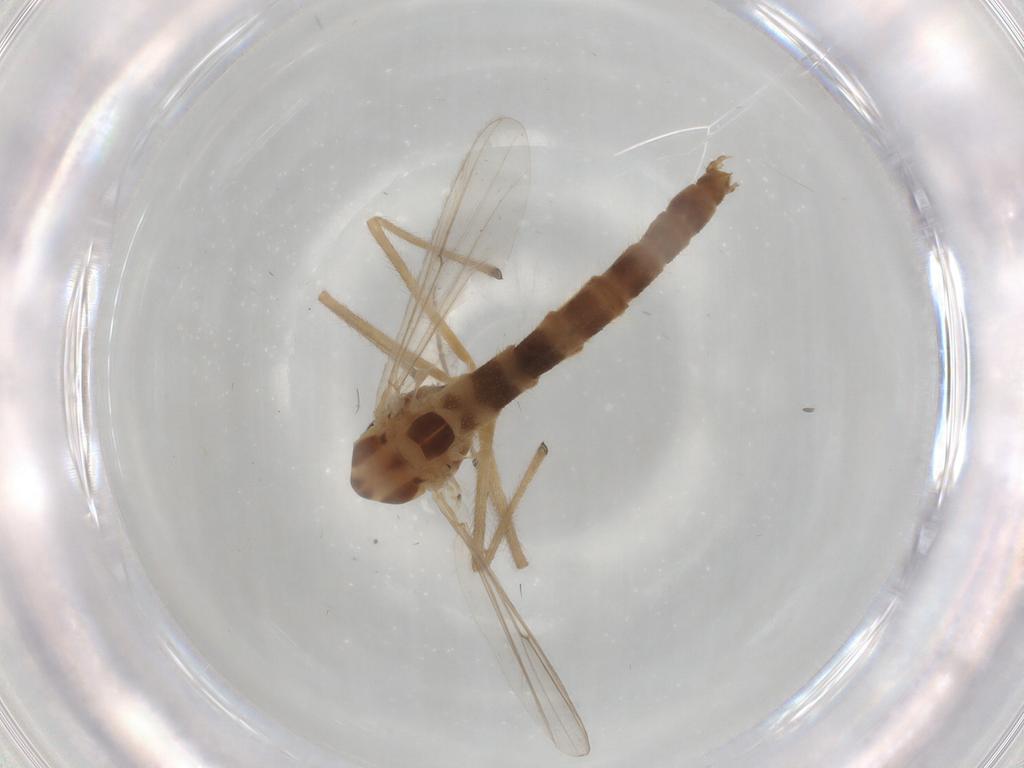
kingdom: Animalia
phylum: Arthropoda
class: Insecta
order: Diptera
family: Chironomidae
